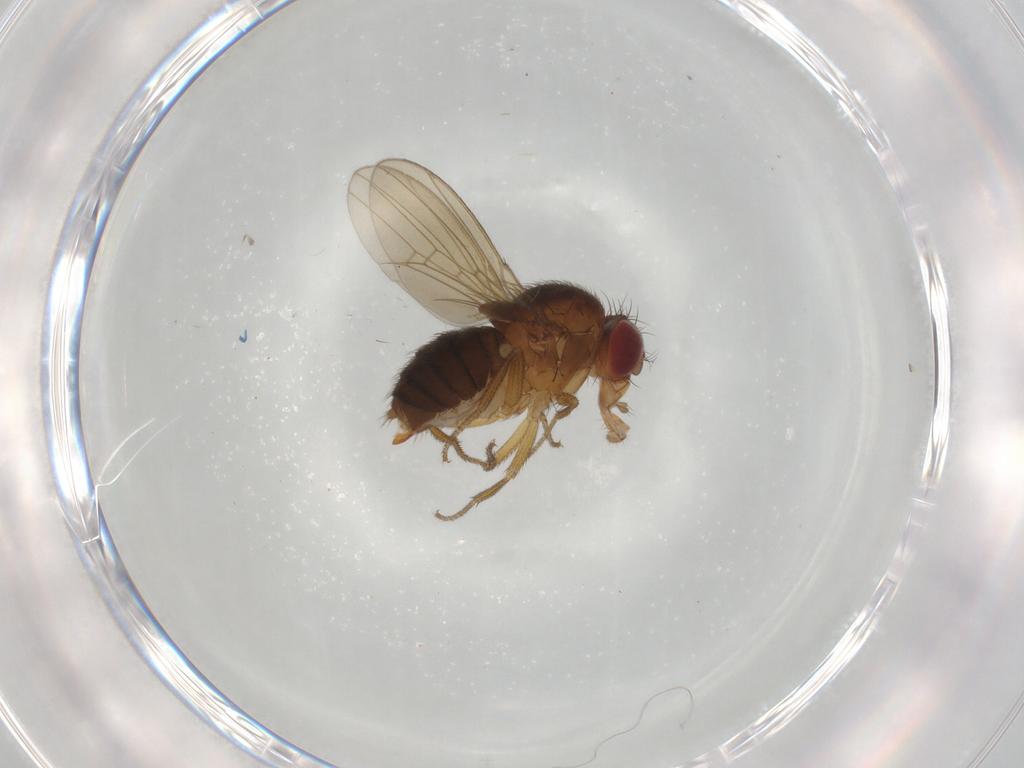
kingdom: Animalia
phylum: Arthropoda
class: Insecta
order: Diptera
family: Drosophilidae
